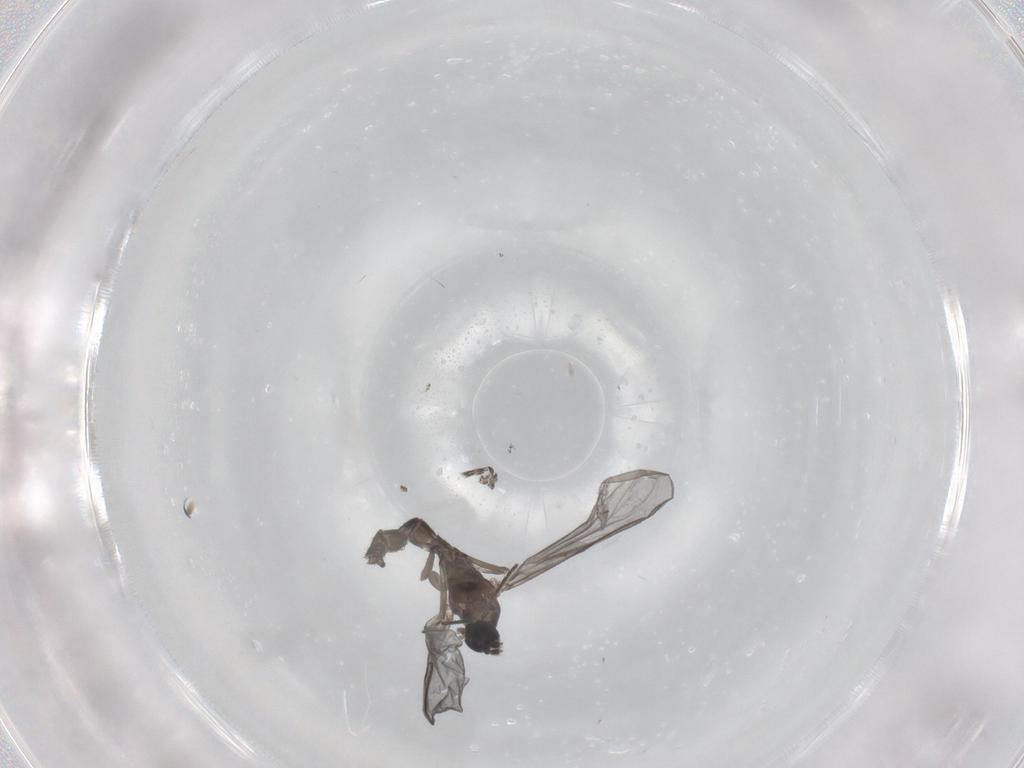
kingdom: Animalia
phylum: Arthropoda
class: Insecta
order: Diptera
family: Limoniidae
